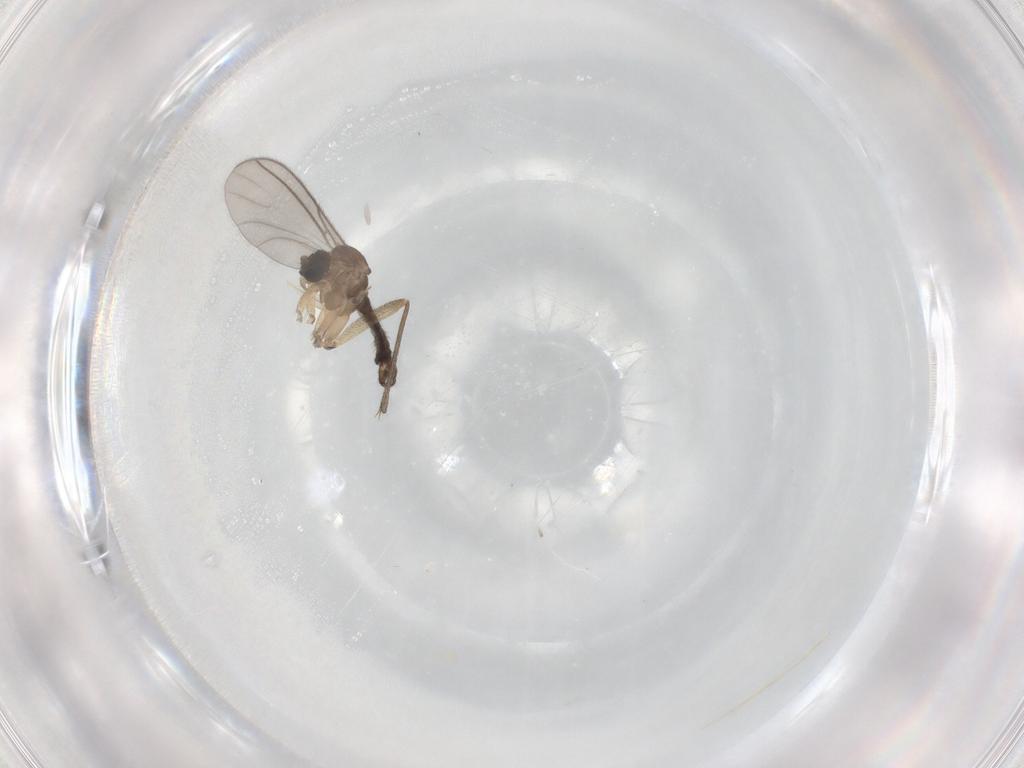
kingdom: Animalia
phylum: Arthropoda
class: Insecta
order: Diptera
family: Sciaridae
